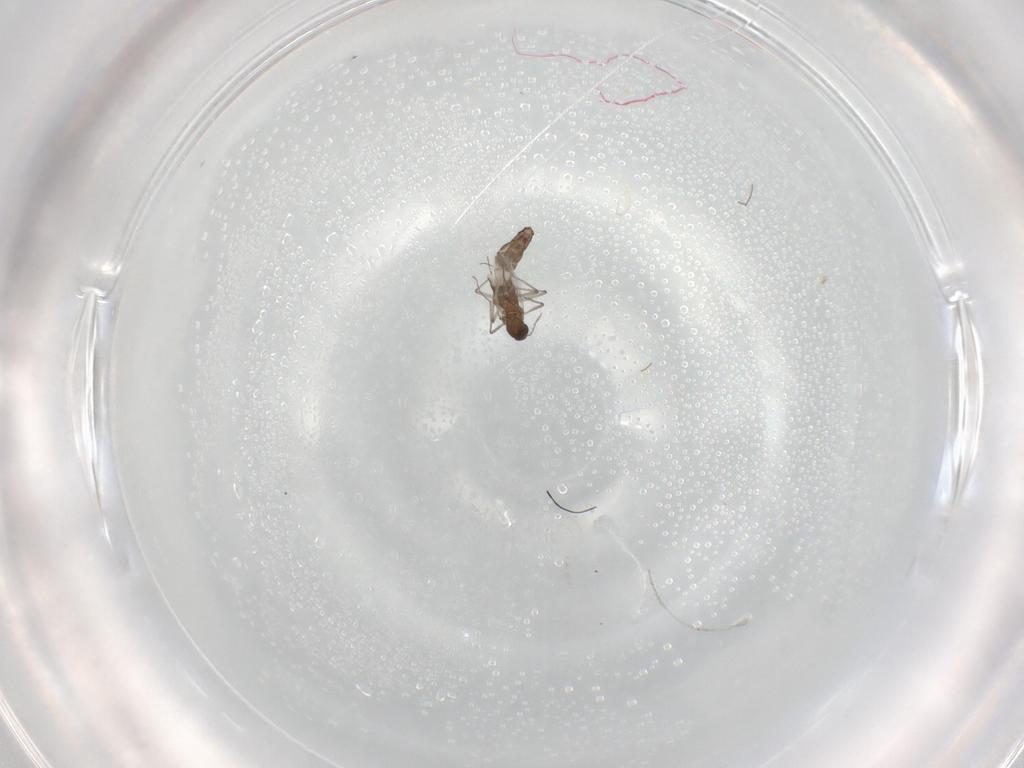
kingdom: Animalia
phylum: Arthropoda
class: Insecta
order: Diptera
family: Chironomidae
